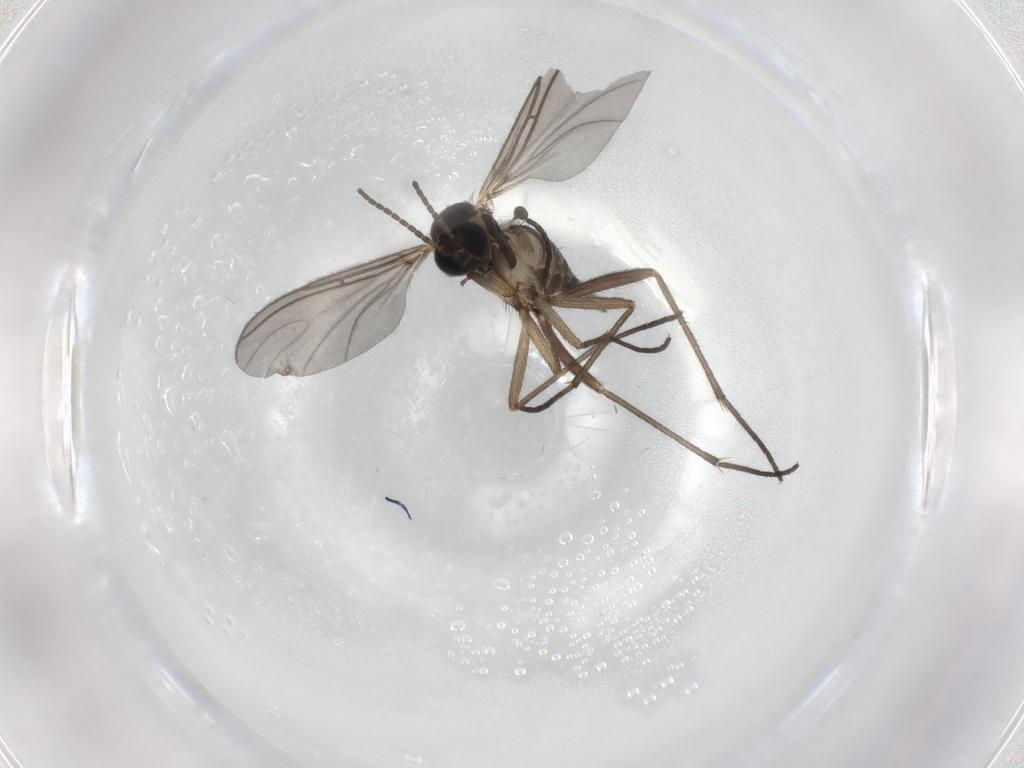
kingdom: Animalia
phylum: Arthropoda
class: Insecta
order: Diptera
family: Sciaridae
